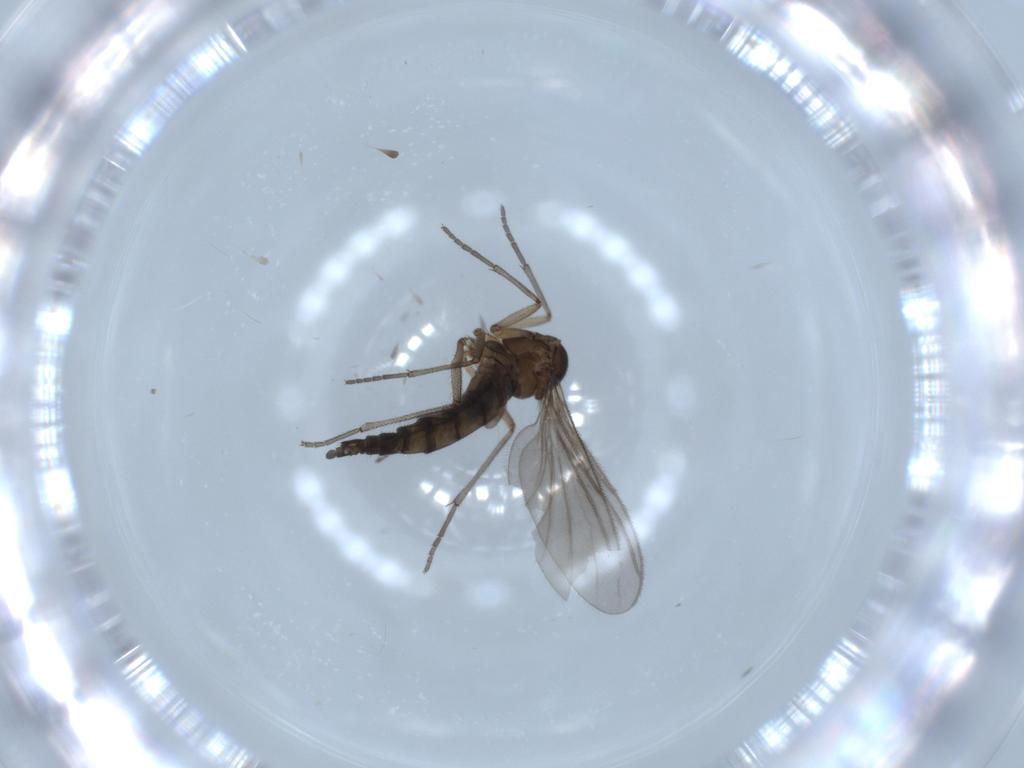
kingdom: Animalia
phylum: Arthropoda
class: Insecta
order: Diptera
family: Sciaridae
